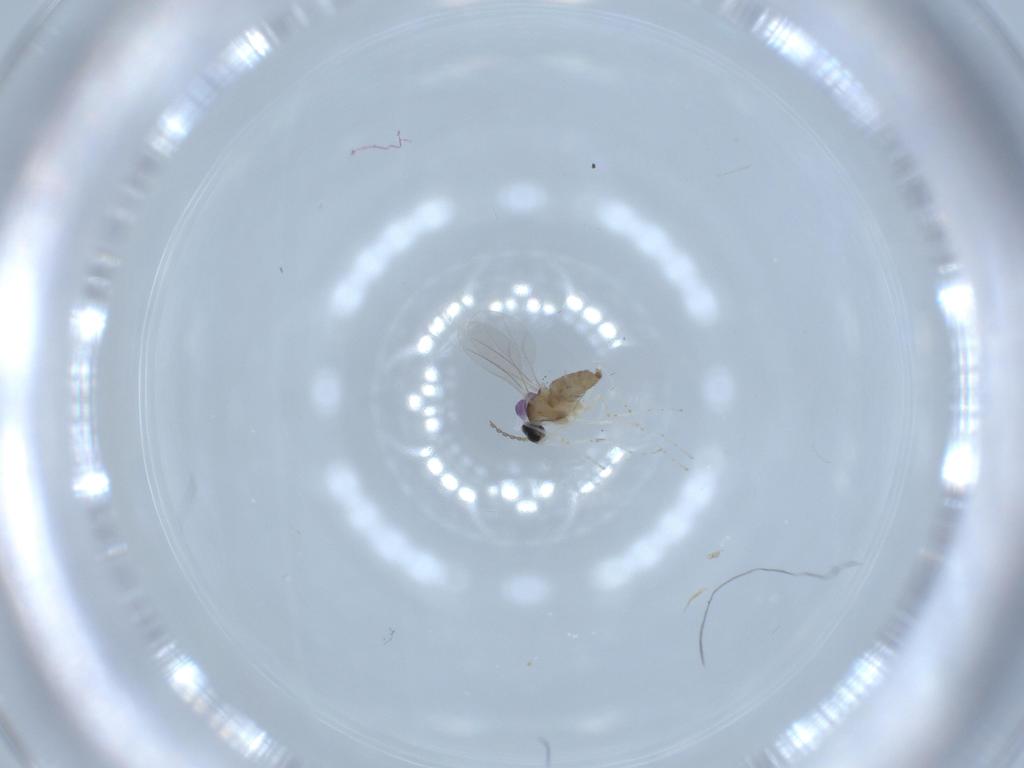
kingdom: Animalia
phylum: Arthropoda
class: Insecta
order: Diptera
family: Cecidomyiidae
